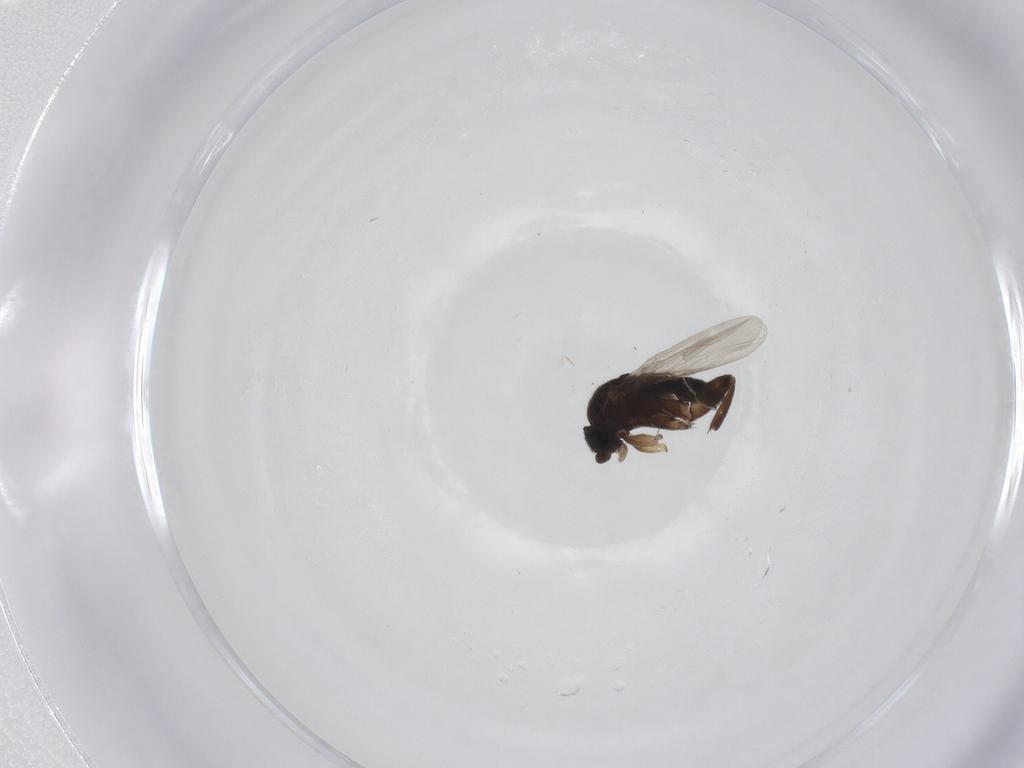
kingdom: Animalia
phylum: Arthropoda
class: Insecta
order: Diptera
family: Phoridae
